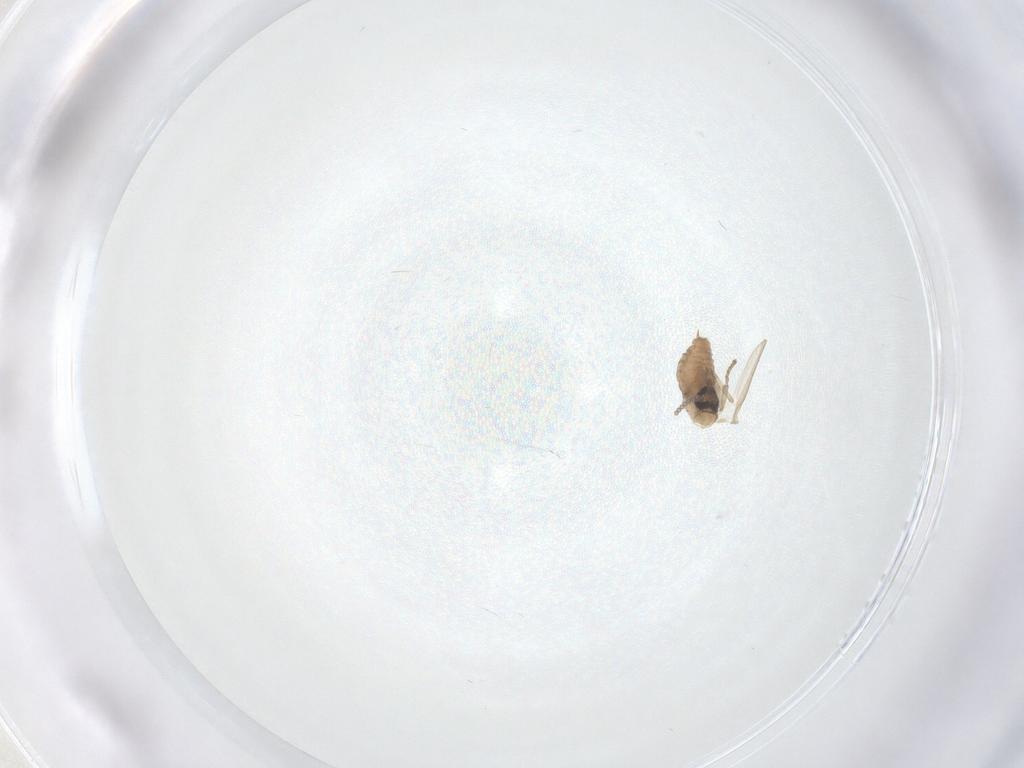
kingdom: Animalia
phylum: Arthropoda
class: Insecta
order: Diptera
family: Psychodidae
